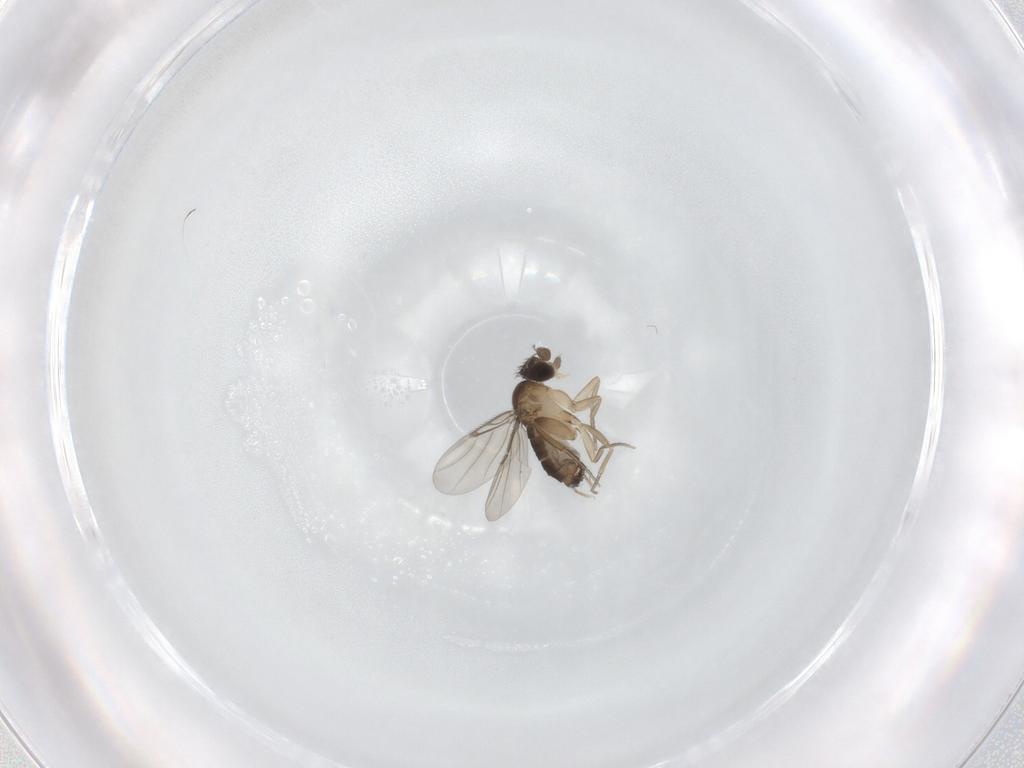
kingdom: Animalia
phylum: Arthropoda
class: Insecta
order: Diptera
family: Phoridae
